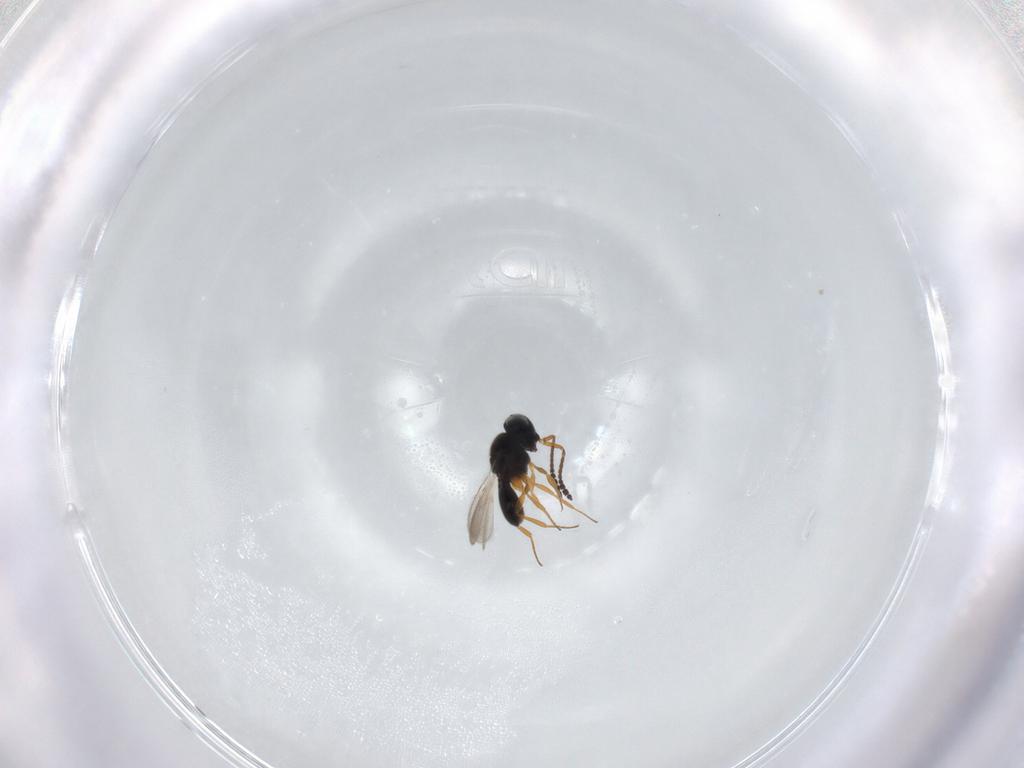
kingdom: Animalia
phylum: Arthropoda
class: Insecta
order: Hymenoptera
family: Scelionidae
